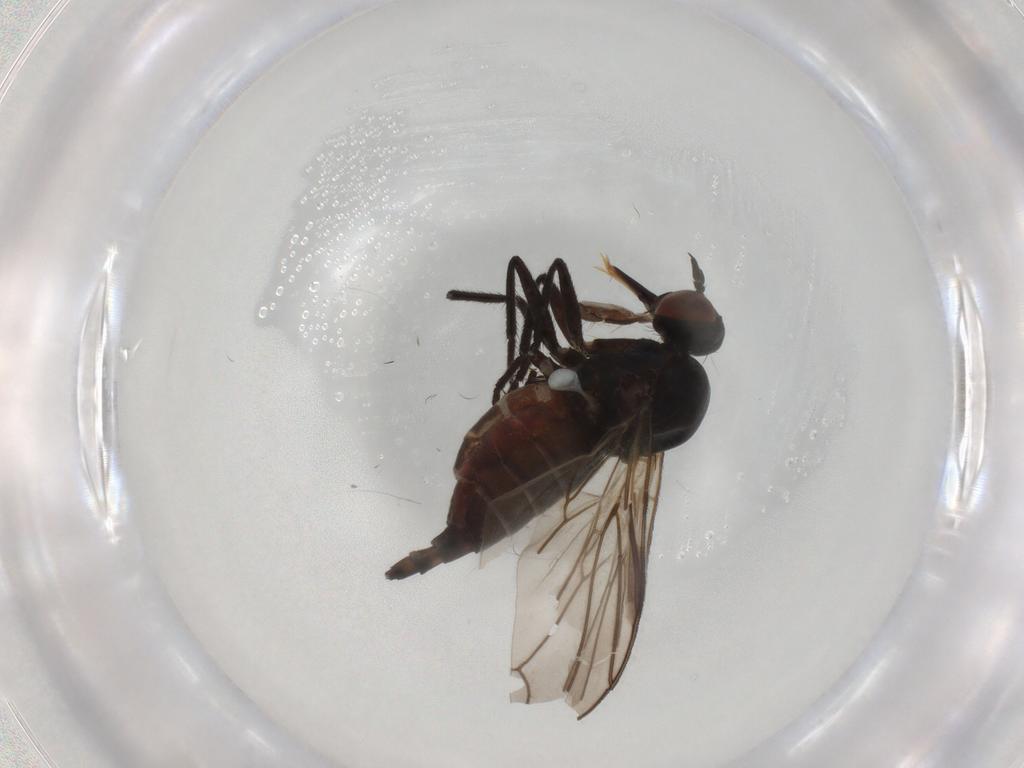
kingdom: Animalia
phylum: Arthropoda
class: Insecta
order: Diptera
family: Empididae
